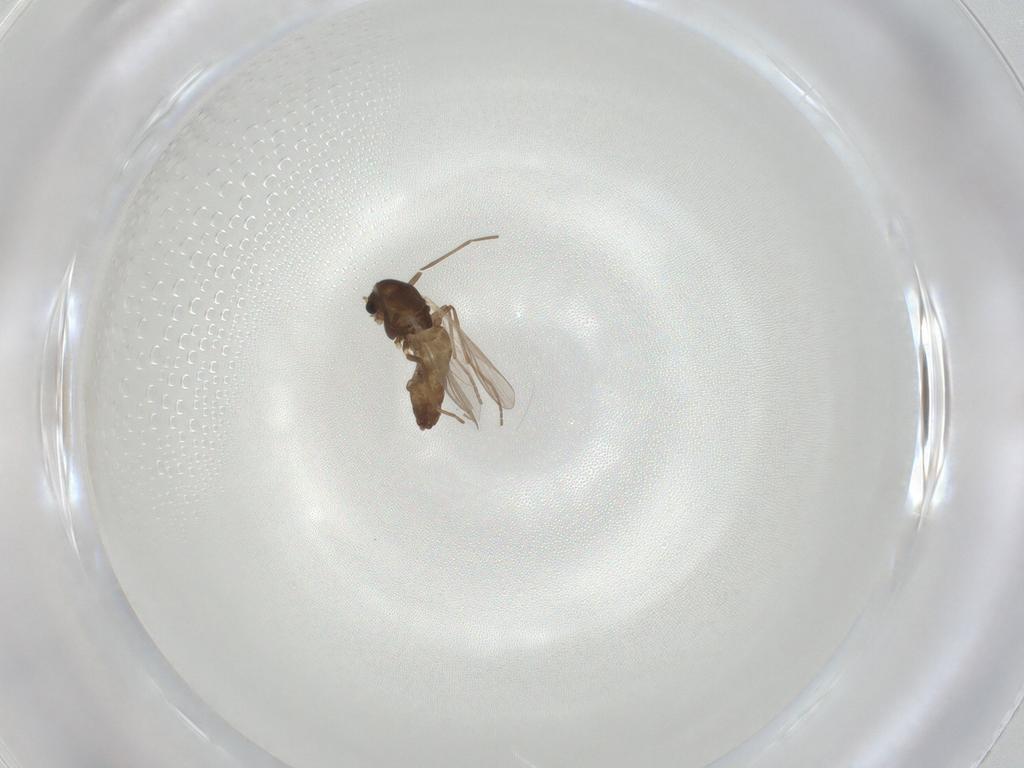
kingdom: Animalia
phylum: Arthropoda
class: Insecta
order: Diptera
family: Chironomidae
